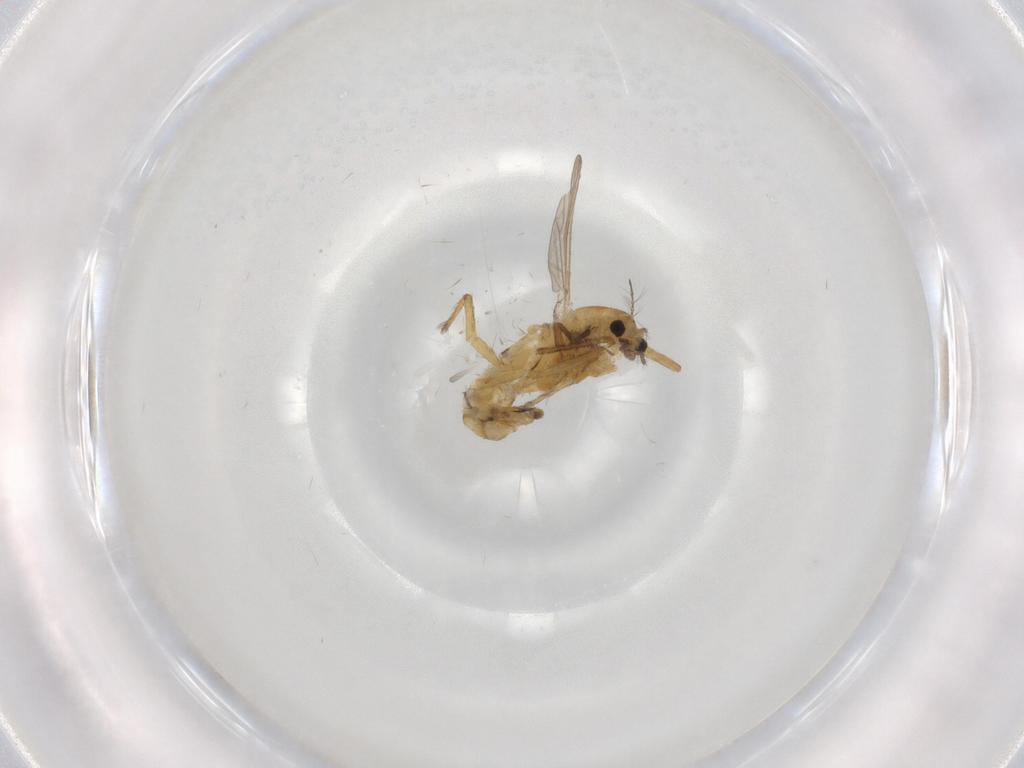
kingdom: Animalia
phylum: Arthropoda
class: Insecta
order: Diptera
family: Chironomidae
